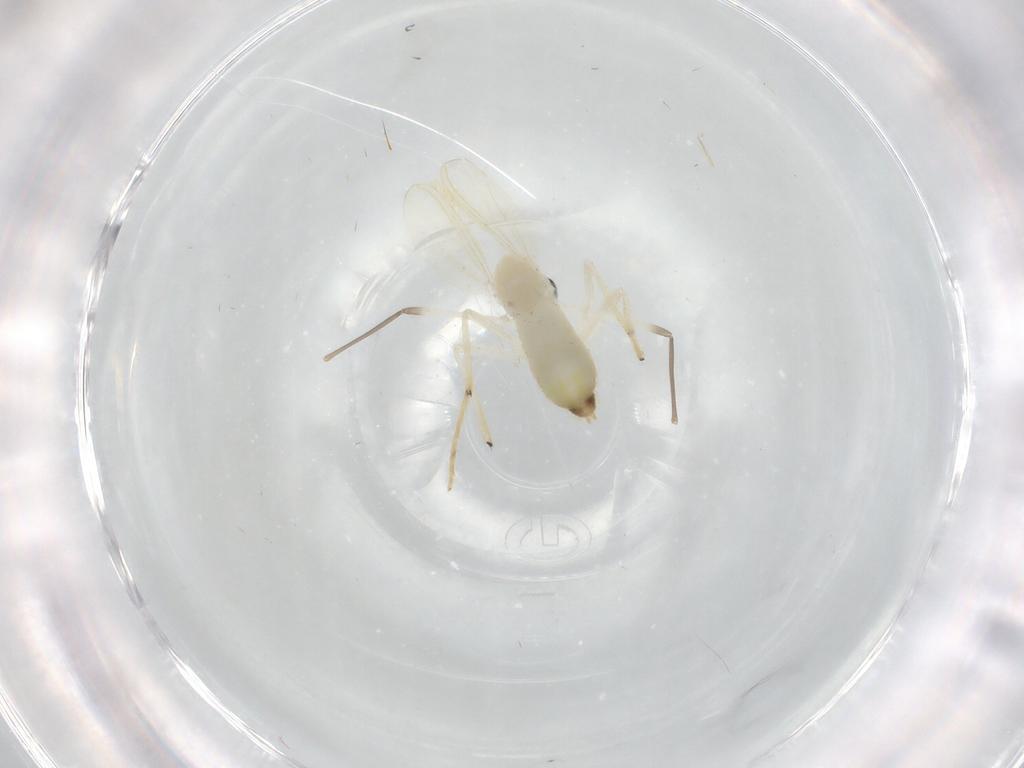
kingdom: Animalia
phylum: Arthropoda
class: Insecta
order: Diptera
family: Chironomidae
